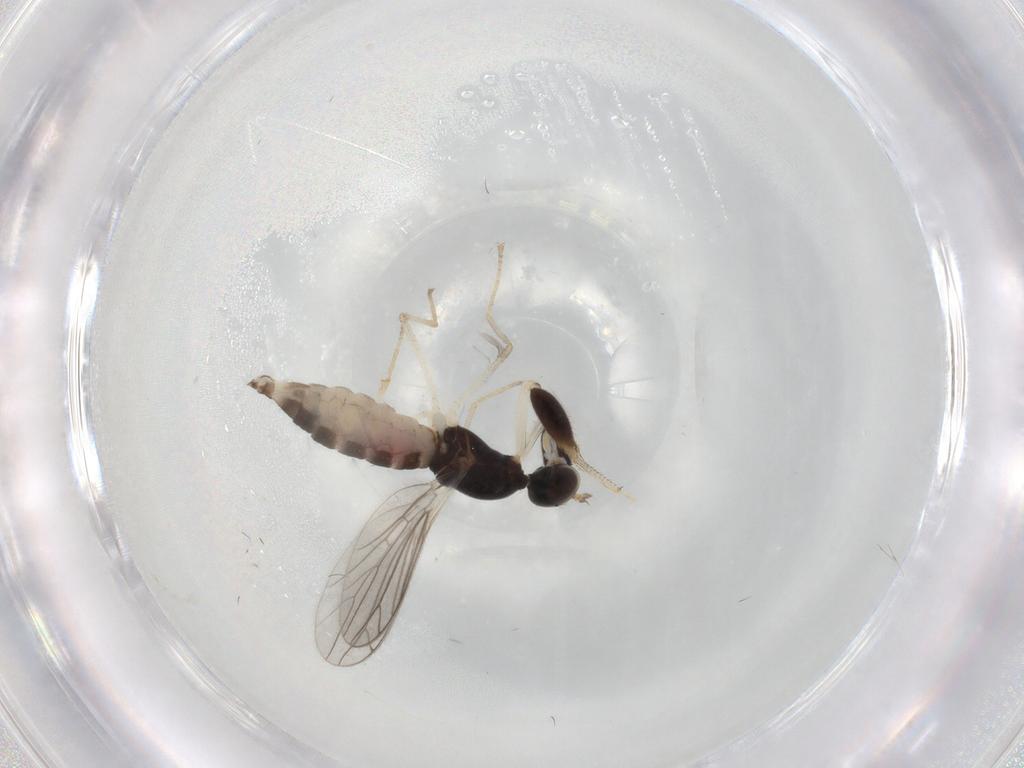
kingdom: Animalia
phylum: Arthropoda
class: Insecta
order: Diptera
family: Empididae
